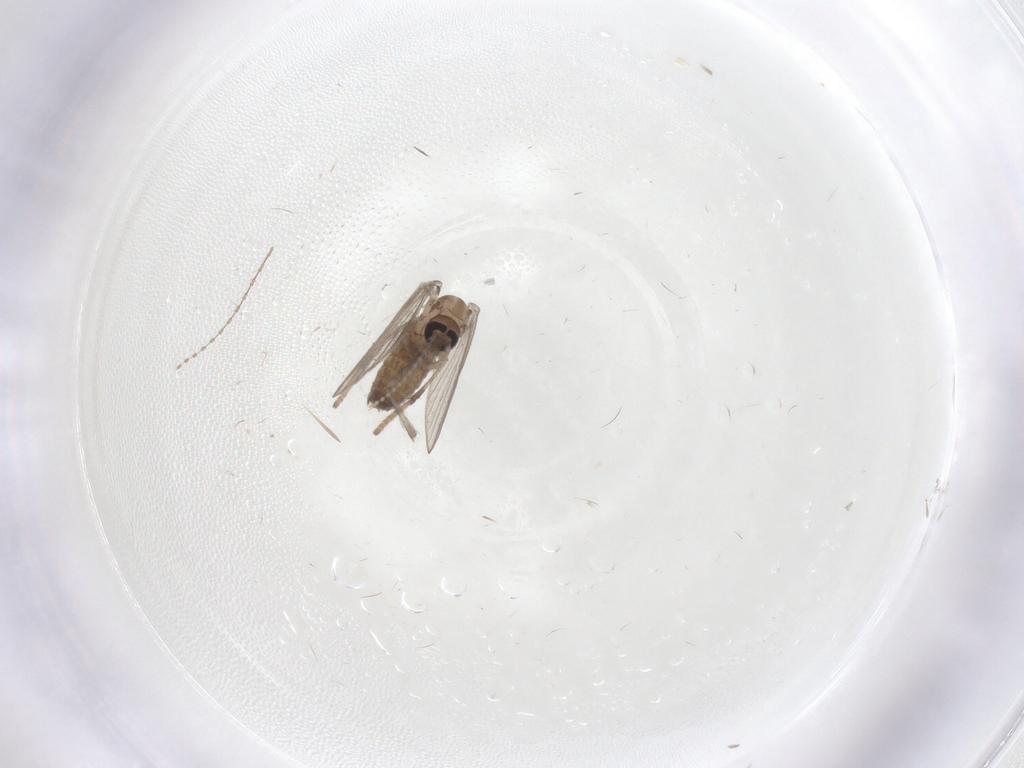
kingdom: Animalia
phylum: Arthropoda
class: Insecta
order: Diptera
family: Psychodidae
